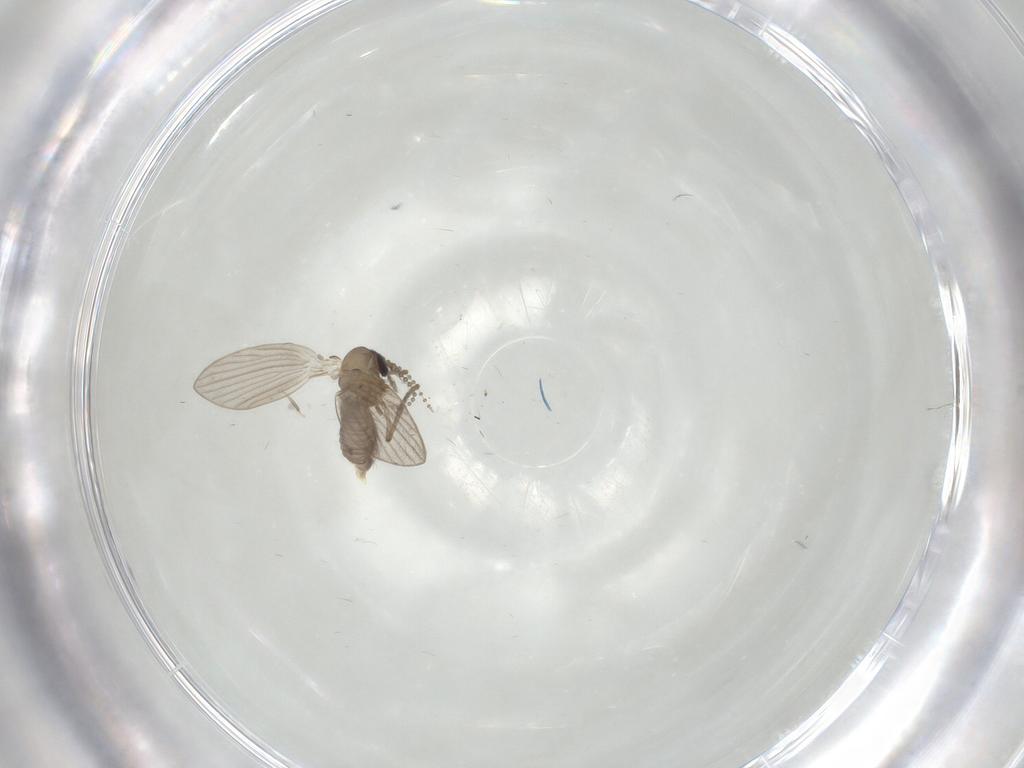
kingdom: Animalia
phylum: Arthropoda
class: Insecta
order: Diptera
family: Psychodidae
